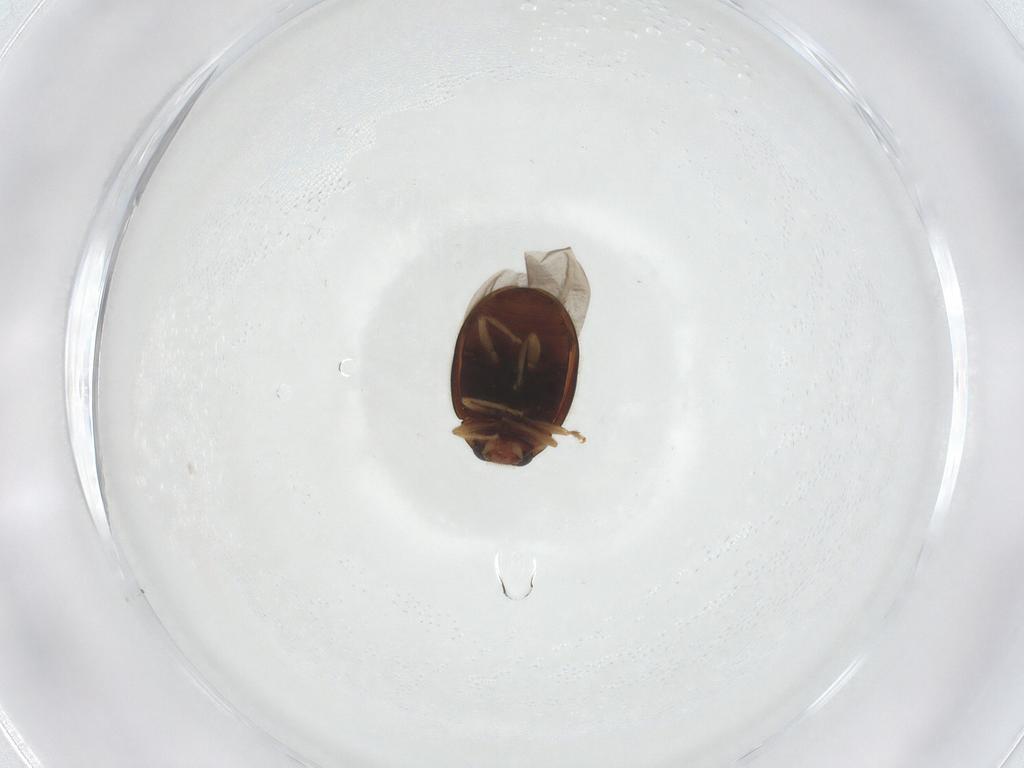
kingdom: Animalia
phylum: Arthropoda
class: Insecta
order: Coleoptera
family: Coccinellidae
